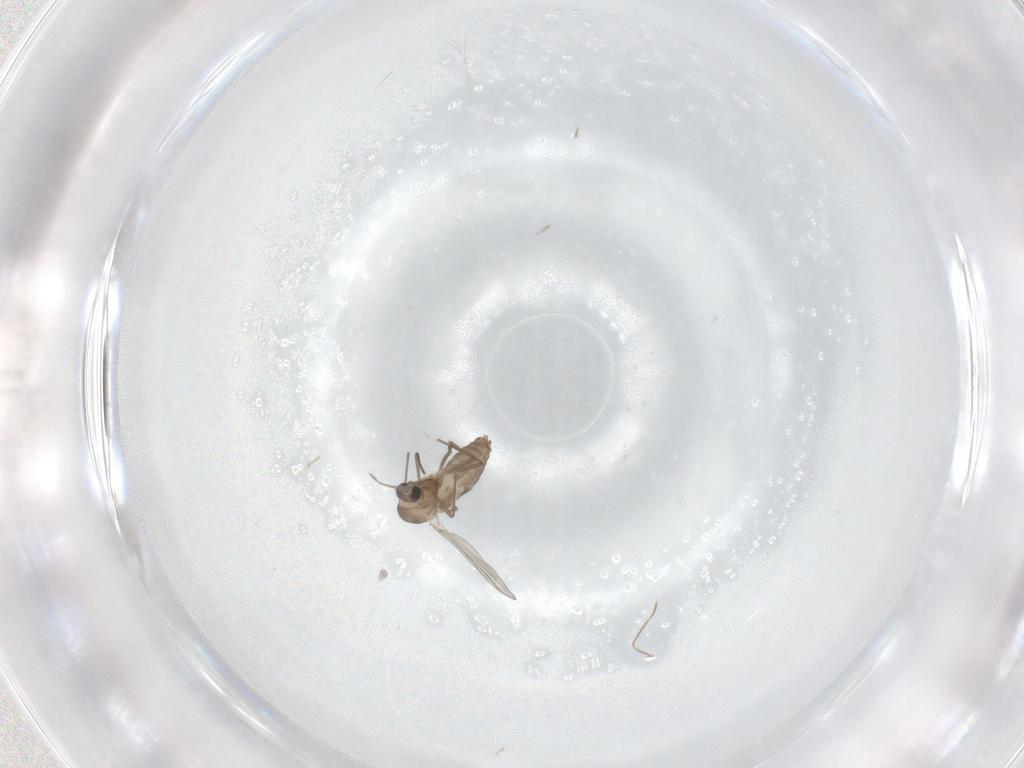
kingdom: Animalia
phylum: Arthropoda
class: Insecta
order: Diptera
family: Chironomidae
